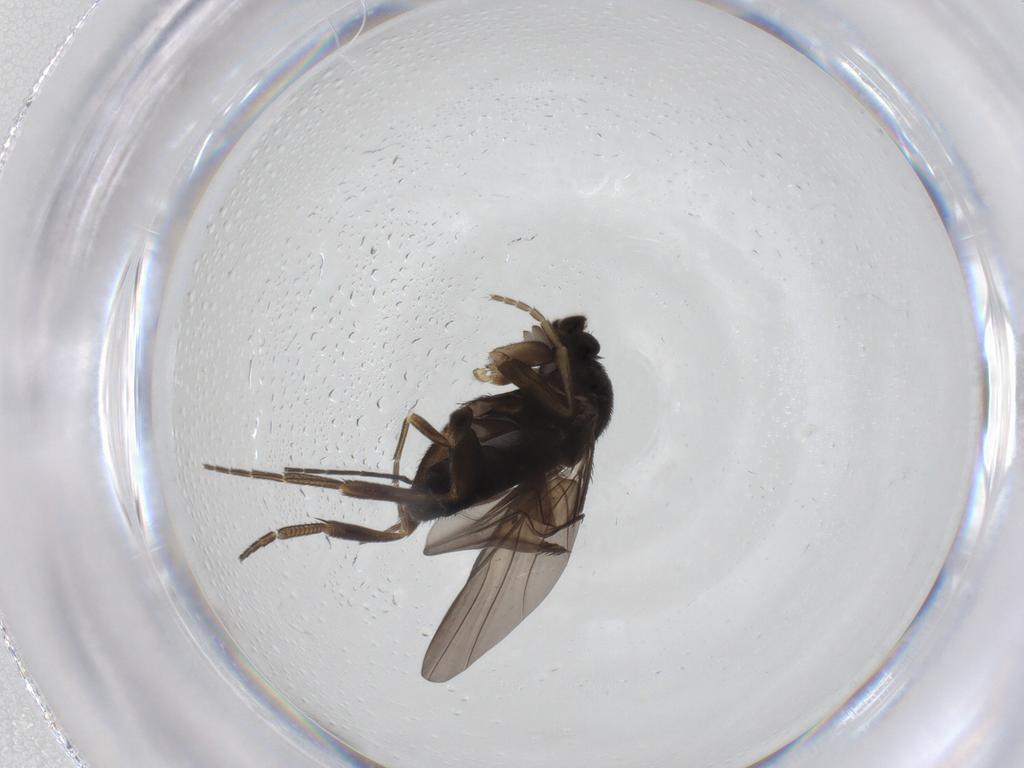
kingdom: Animalia
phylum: Arthropoda
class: Insecta
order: Diptera
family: Phoridae
